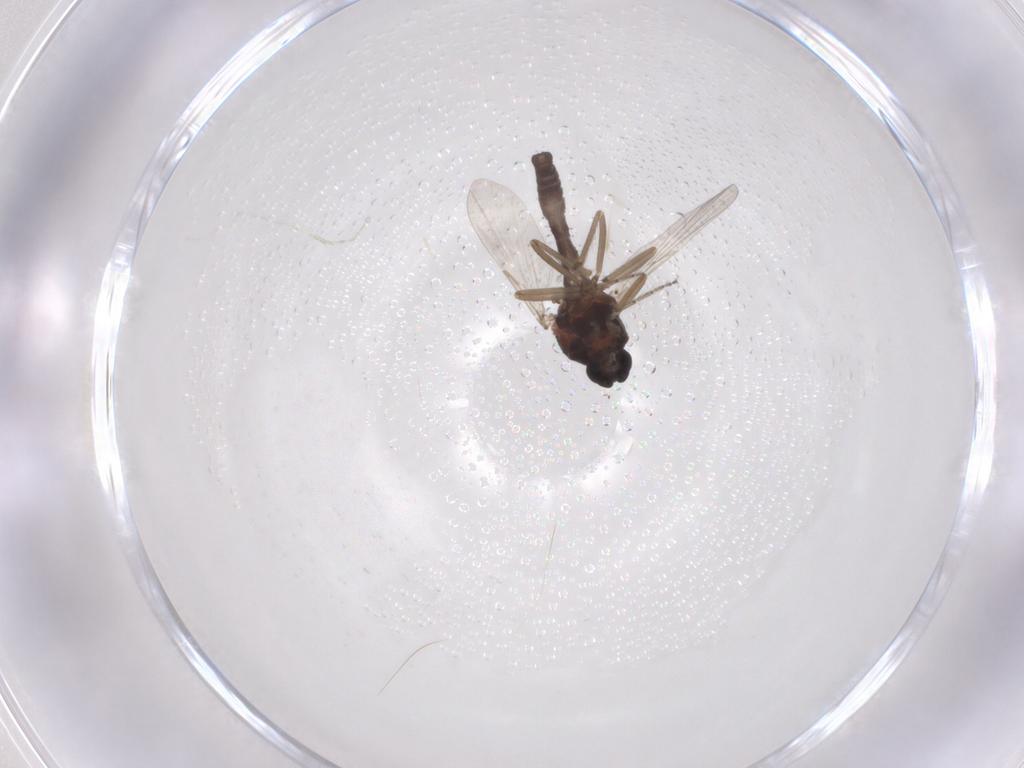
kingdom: Animalia
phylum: Arthropoda
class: Insecta
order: Diptera
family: Ceratopogonidae
